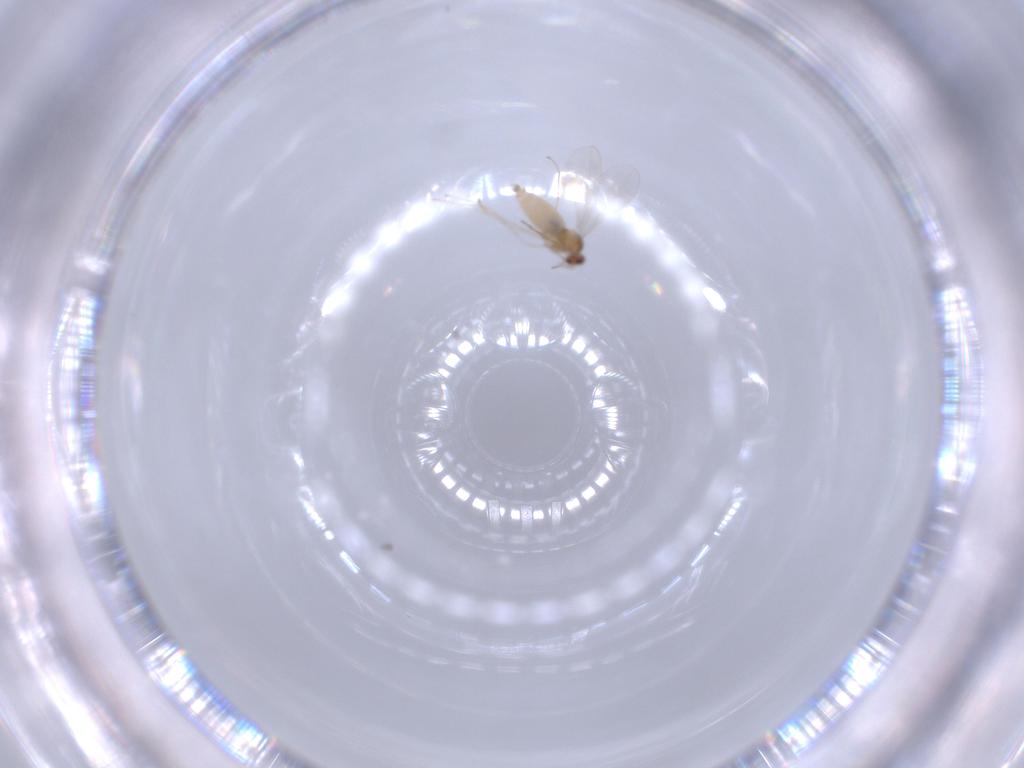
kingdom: Animalia
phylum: Arthropoda
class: Insecta
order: Diptera
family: Cecidomyiidae
